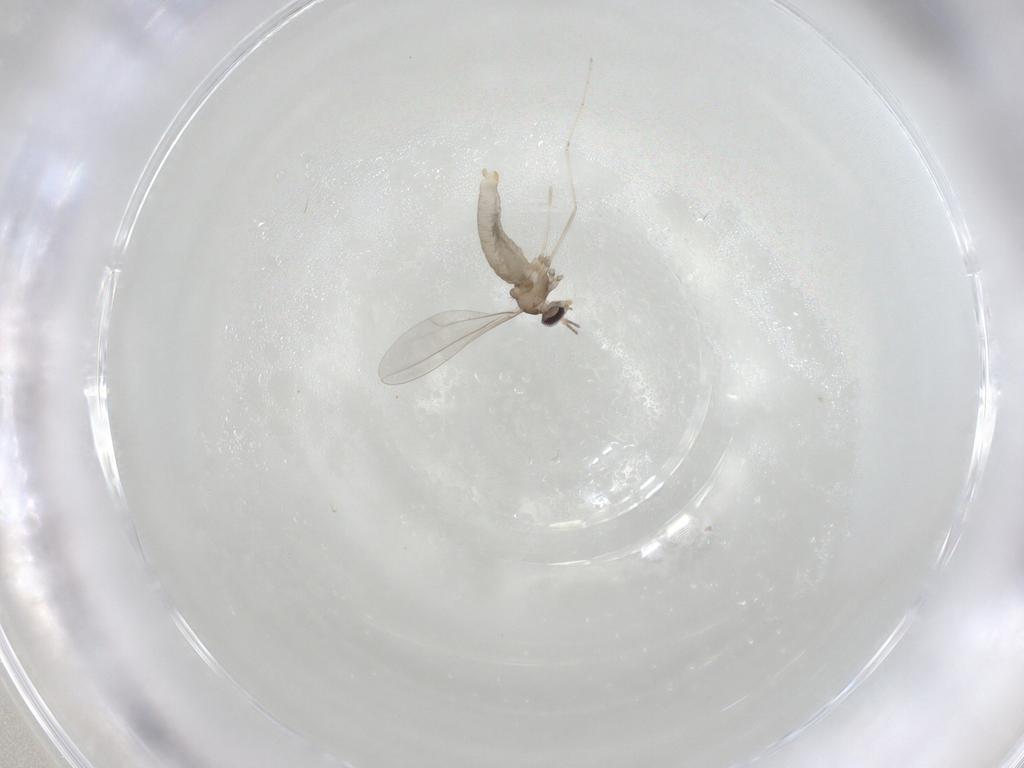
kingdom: Animalia
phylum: Arthropoda
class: Insecta
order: Diptera
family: Cecidomyiidae
